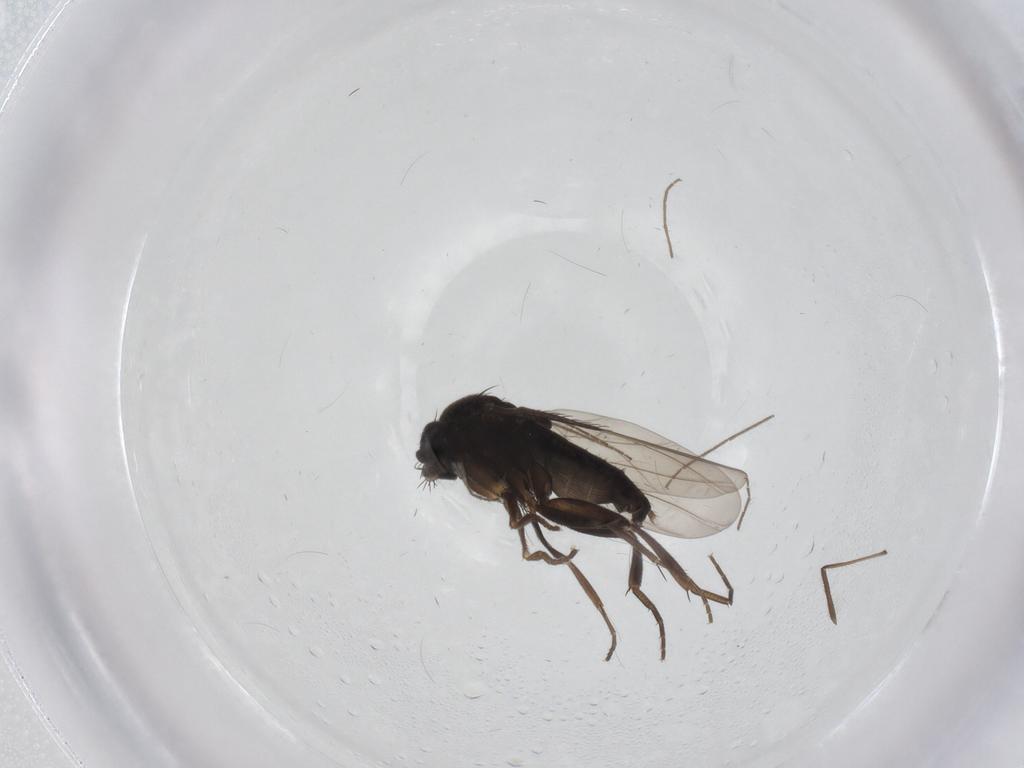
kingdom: Animalia
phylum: Arthropoda
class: Insecta
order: Diptera
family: Phoridae
